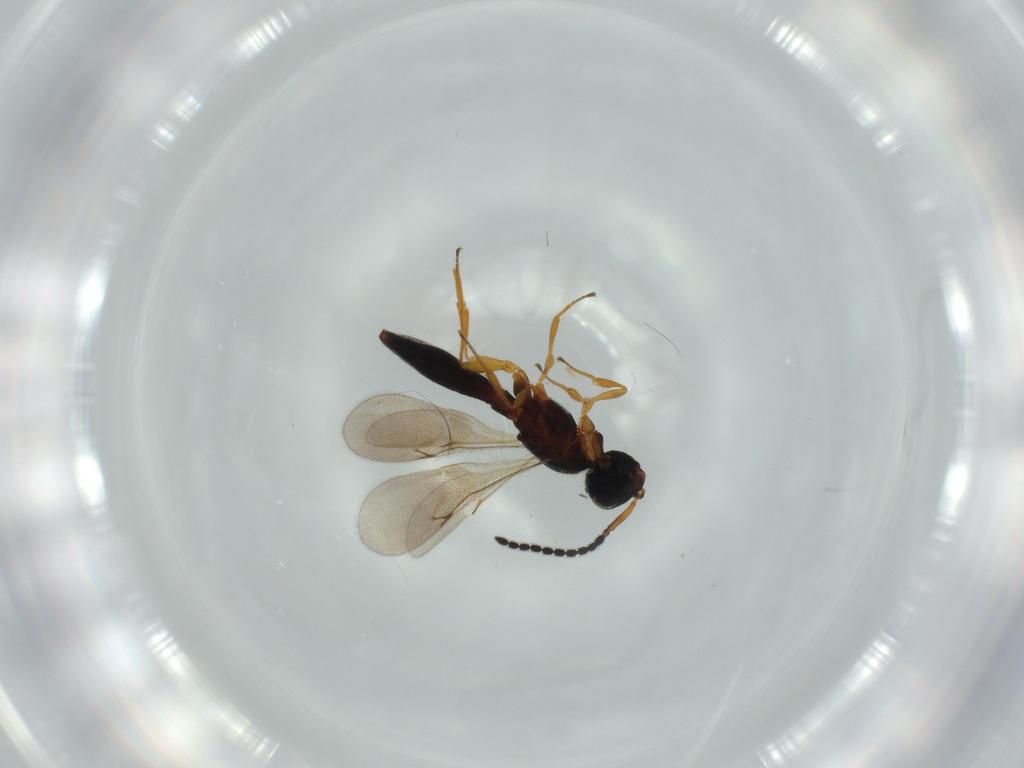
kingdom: Animalia
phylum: Arthropoda
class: Insecta
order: Hymenoptera
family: Scelionidae
